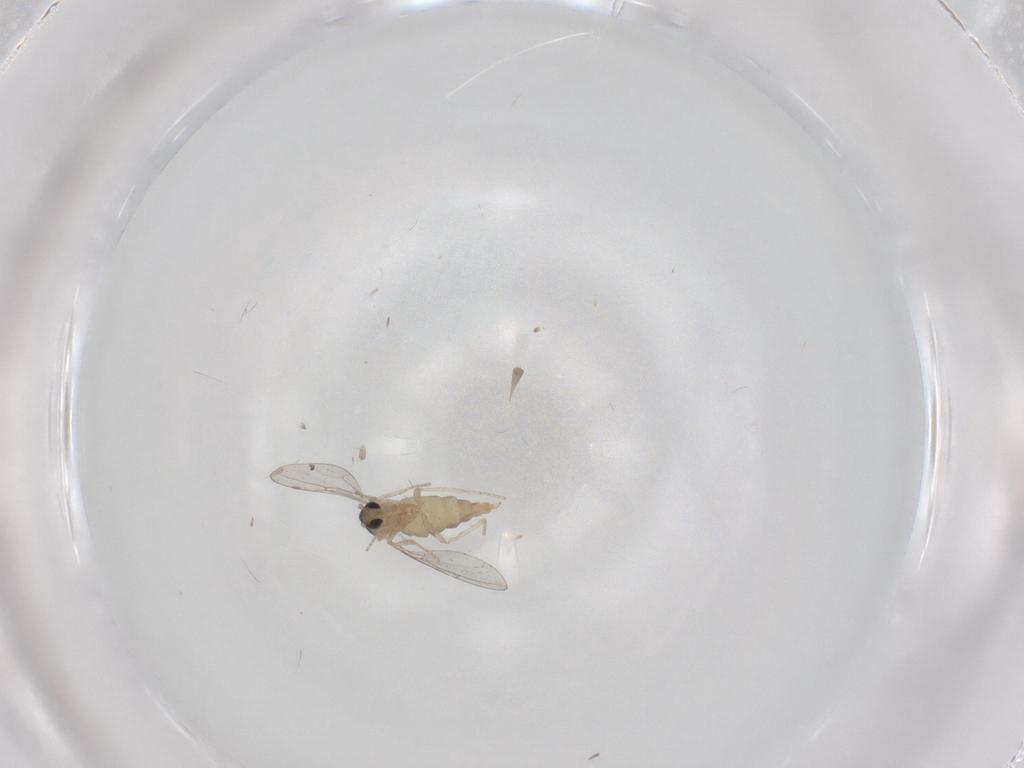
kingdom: Animalia
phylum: Arthropoda
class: Insecta
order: Diptera
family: Cecidomyiidae
